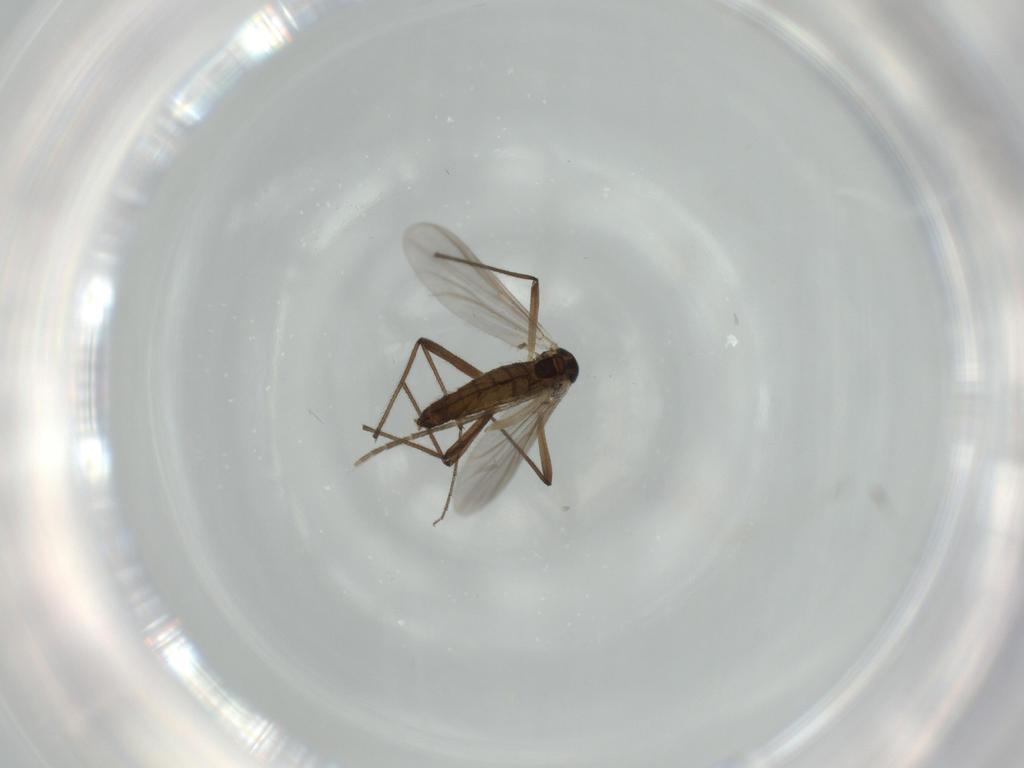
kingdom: Animalia
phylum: Arthropoda
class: Insecta
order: Diptera
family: Chironomidae
